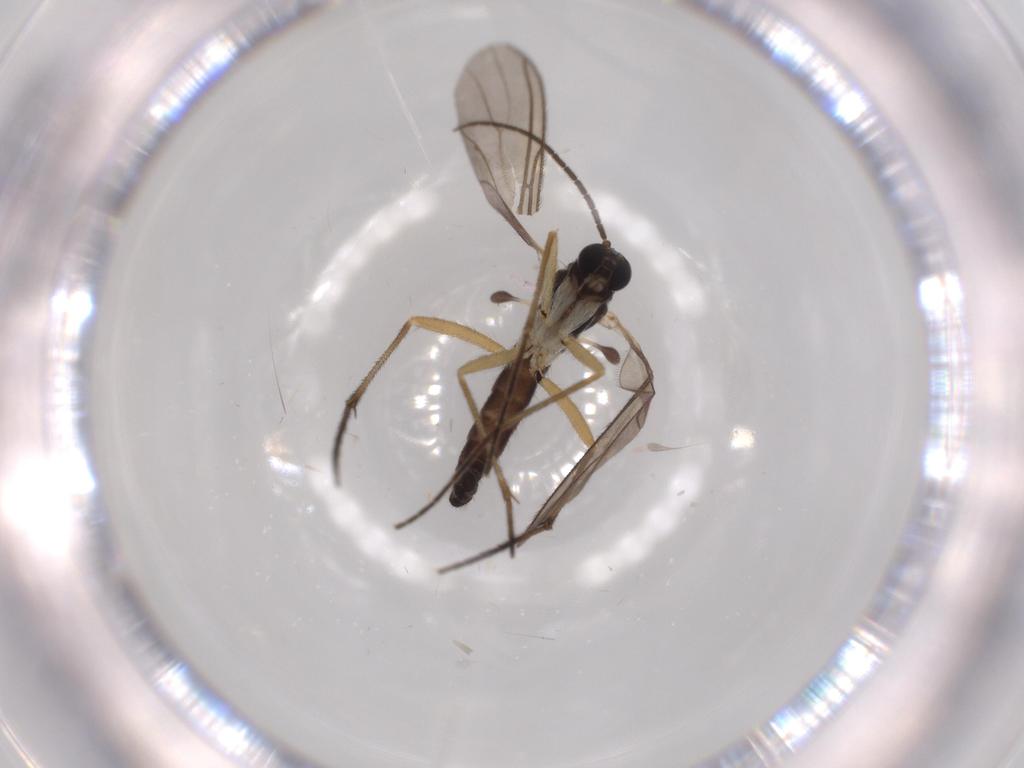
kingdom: Animalia
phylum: Arthropoda
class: Insecta
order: Diptera
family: Sciaridae
